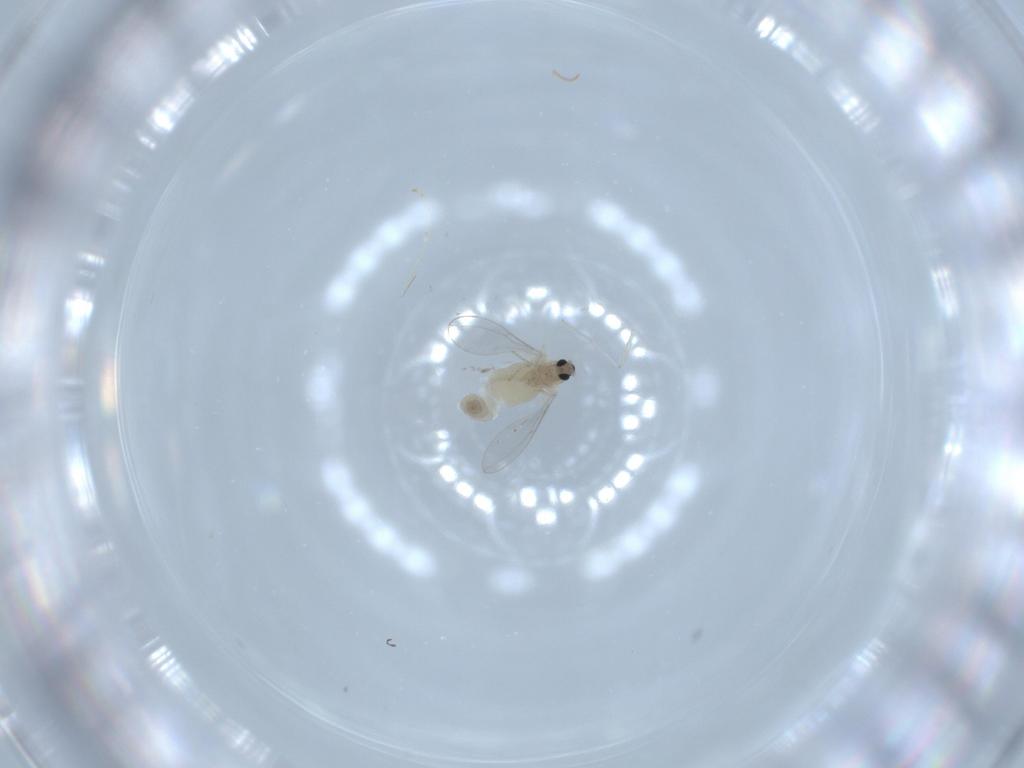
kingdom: Animalia
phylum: Arthropoda
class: Insecta
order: Diptera
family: Cecidomyiidae
